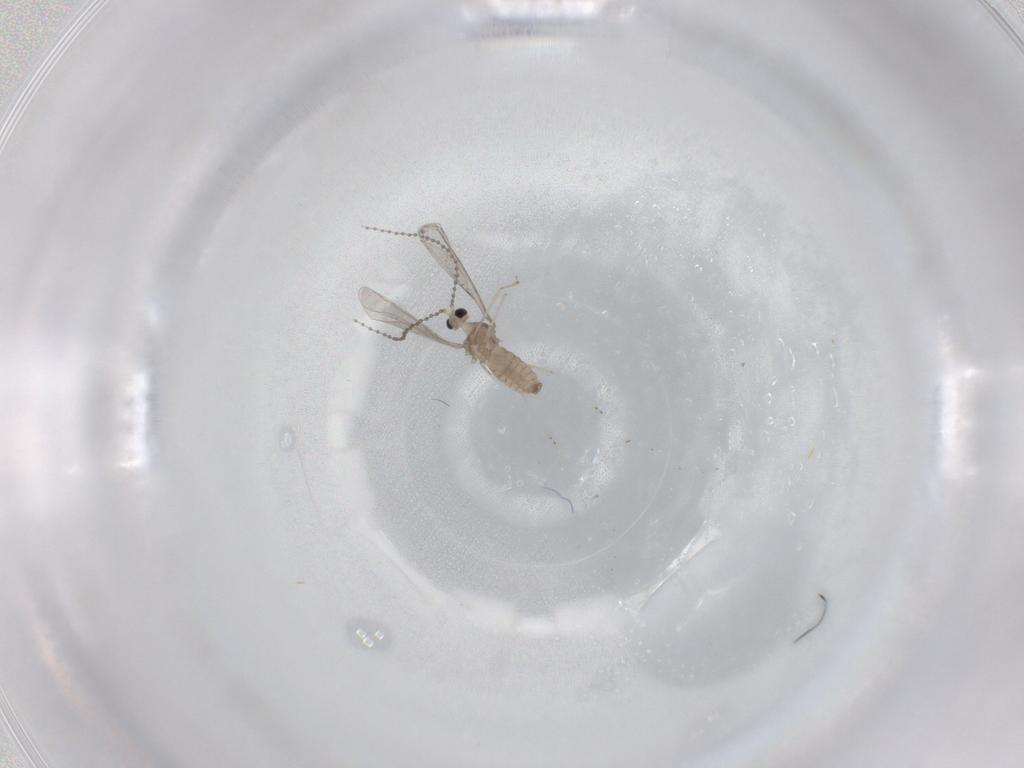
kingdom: Animalia
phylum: Arthropoda
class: Insecta
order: Diptera
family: Cecidomyiidae
